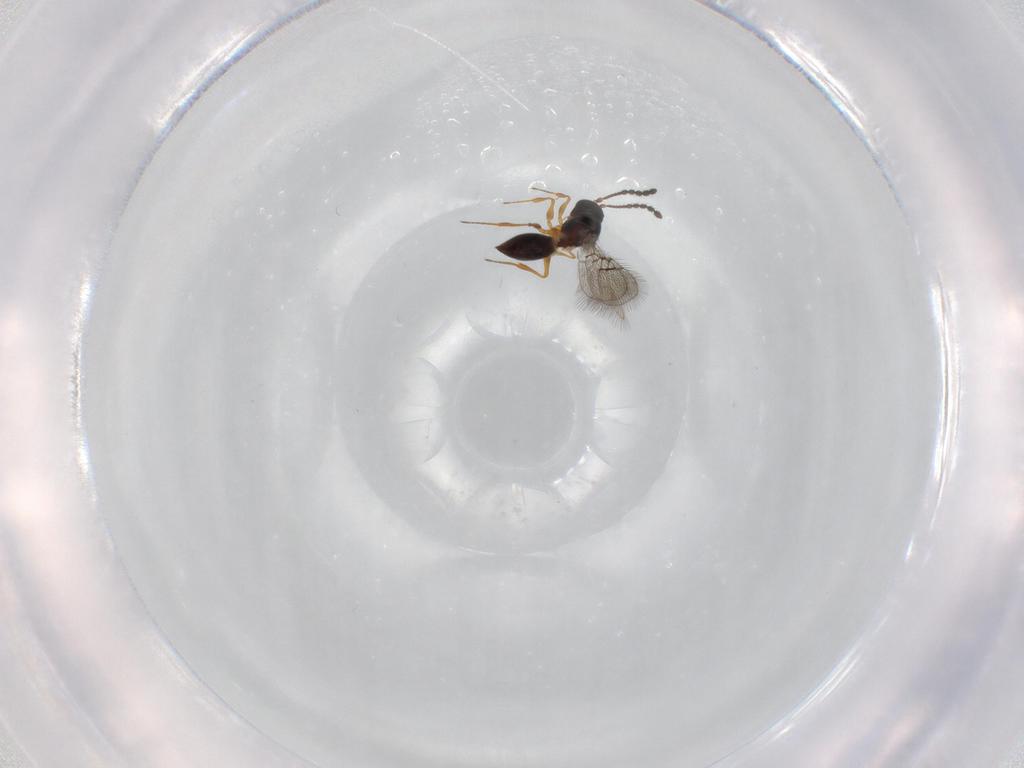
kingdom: Animalia
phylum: Arthropoda
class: Insecta
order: Hymenoptera
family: Figitidae
